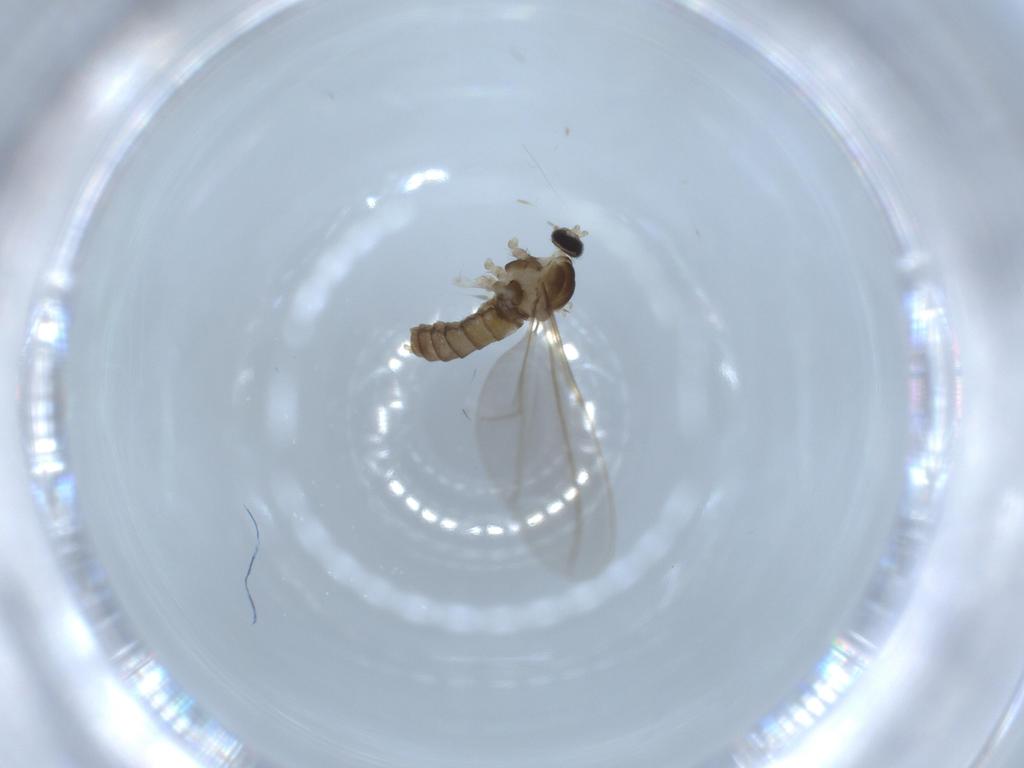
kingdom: Animalia
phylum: Arthropoda
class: Insecta
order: Diptera
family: Cecidomyiidae
